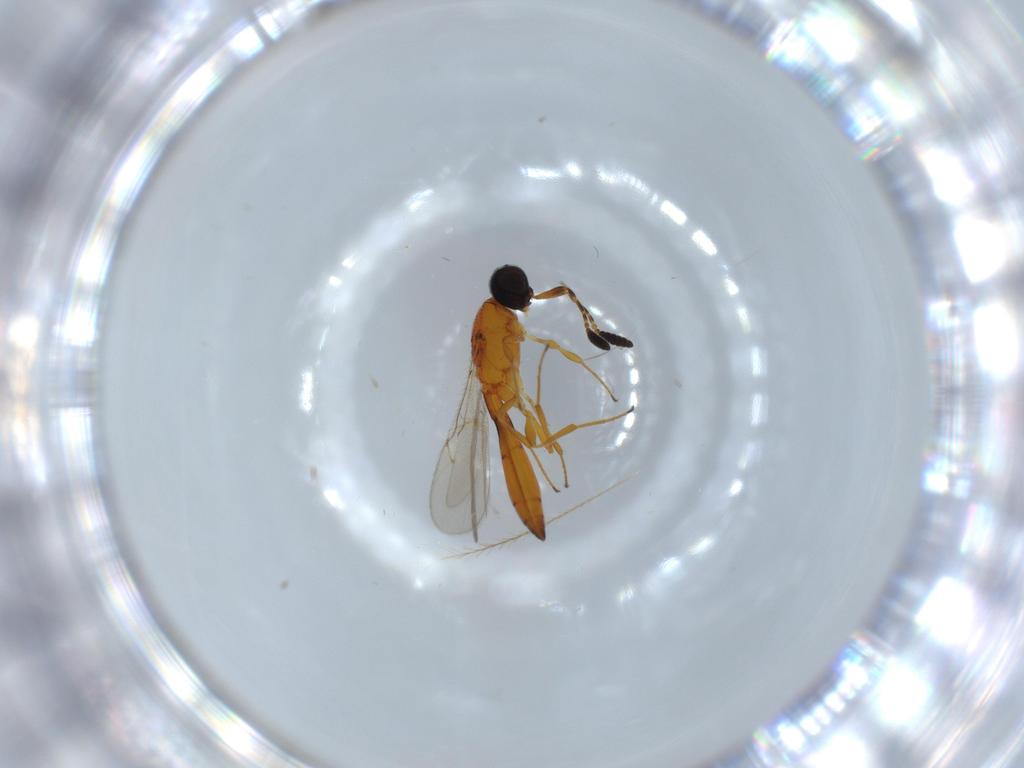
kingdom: Animalia
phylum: Arthropoda
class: Insecta
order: Hymenoptera
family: Scelionidae
